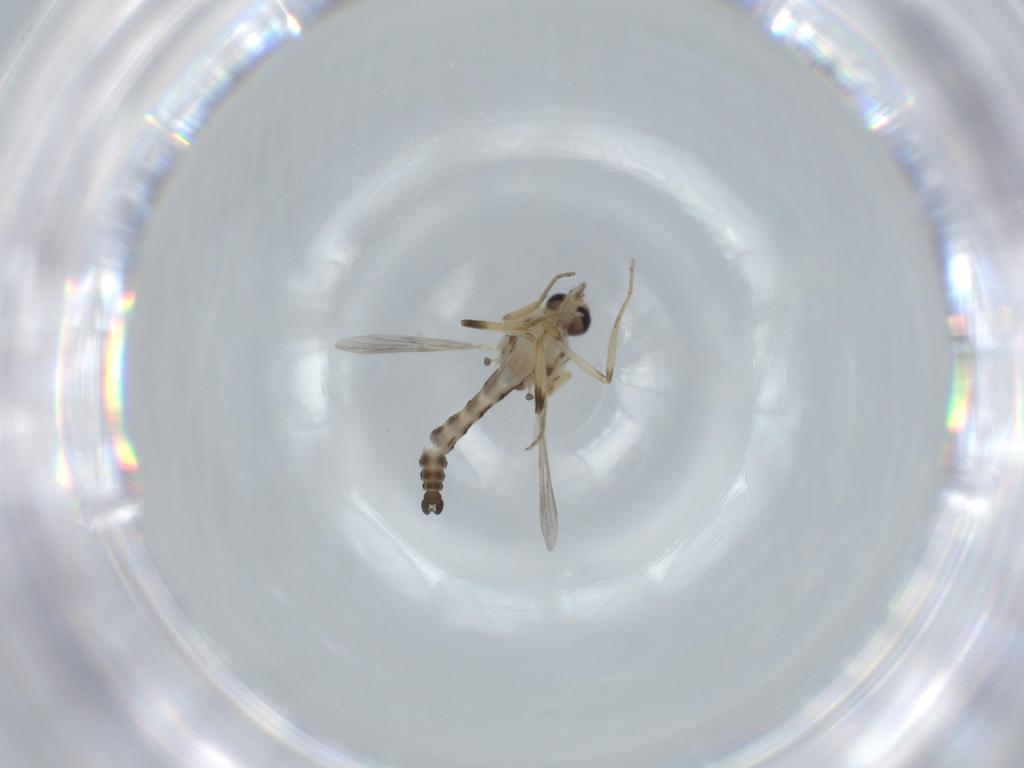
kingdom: Animalia
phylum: Arthropoda
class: Insecta
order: Diptera
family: Ceratopogonidae
